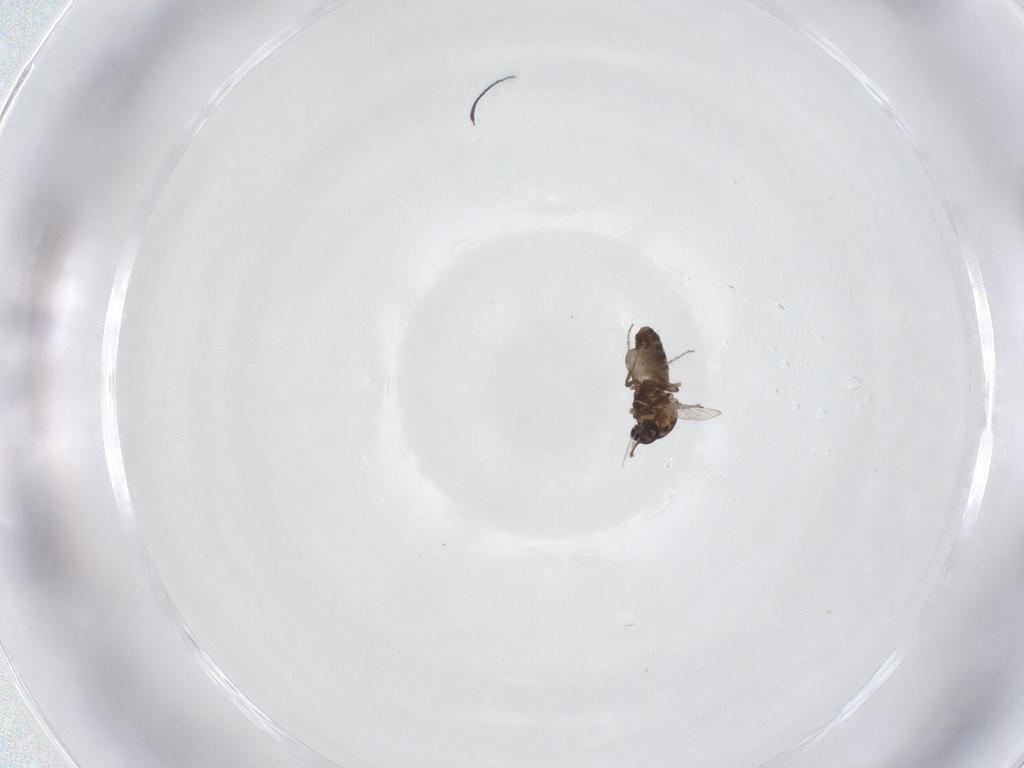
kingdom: Animalia
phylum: Arthropoda
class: Insecta
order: Diptera
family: Ceratopogonidae
